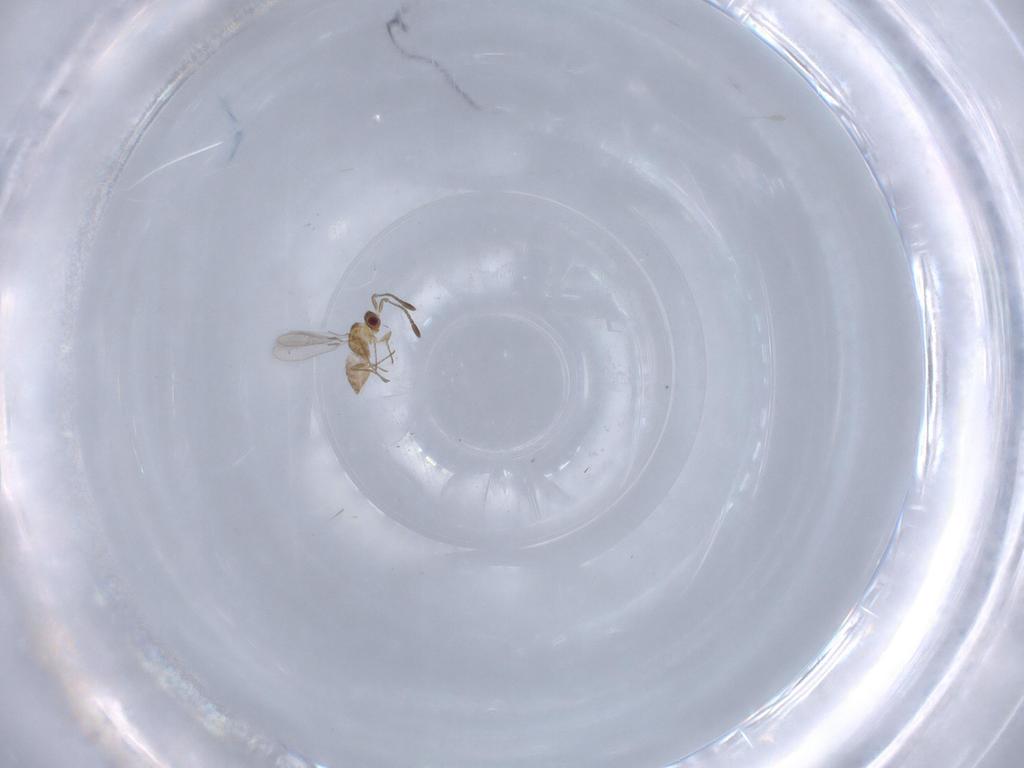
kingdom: Animalia
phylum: Arthropoda
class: Insecta
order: Hymenoptera
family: Mymaridae
